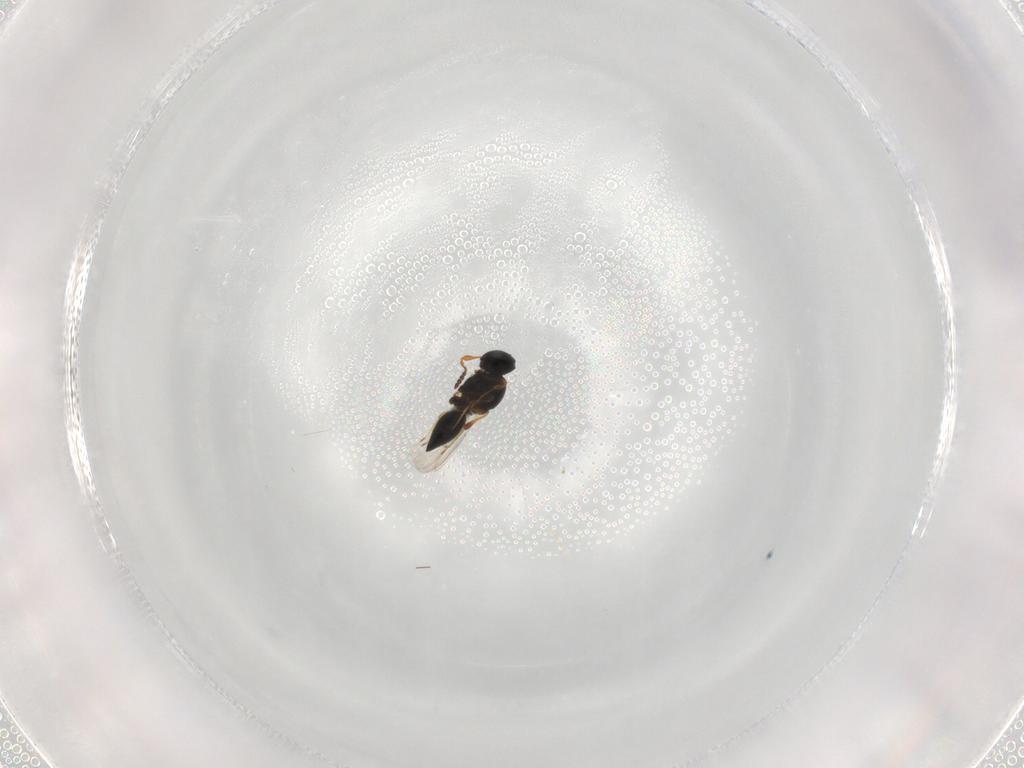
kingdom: Animalia
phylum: Arthropoda
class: Insecta
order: Hymenoptera
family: Platygastridae
